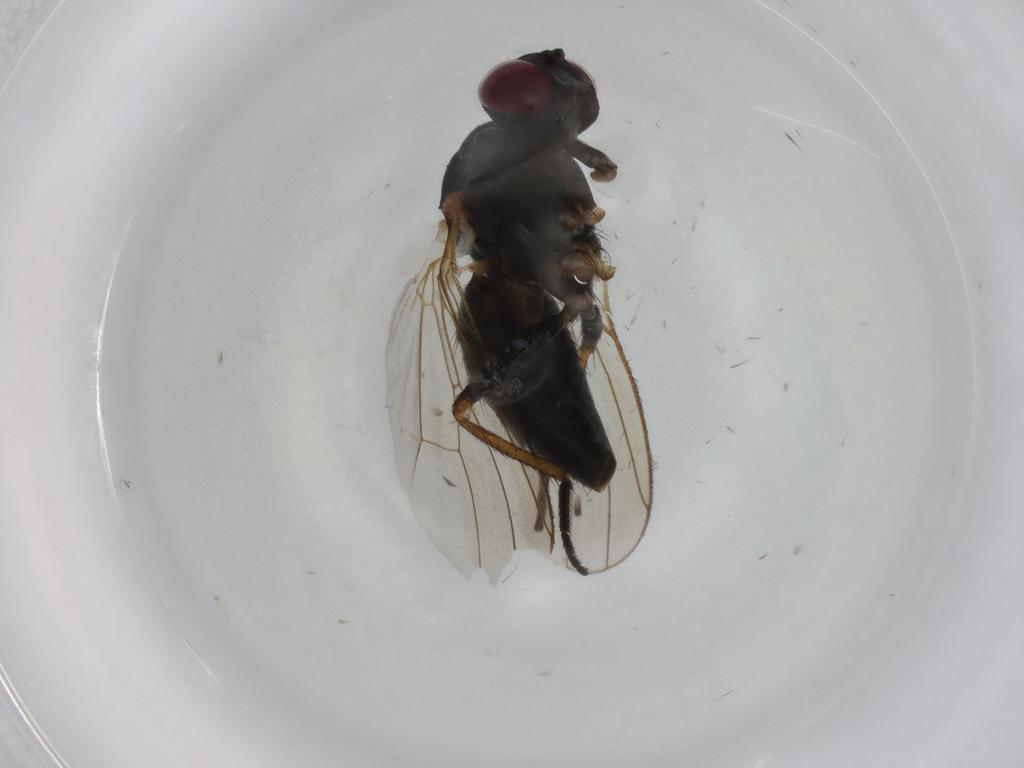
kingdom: Animalia
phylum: Arthropoda
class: Insecta
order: Diptera
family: Muscidae
